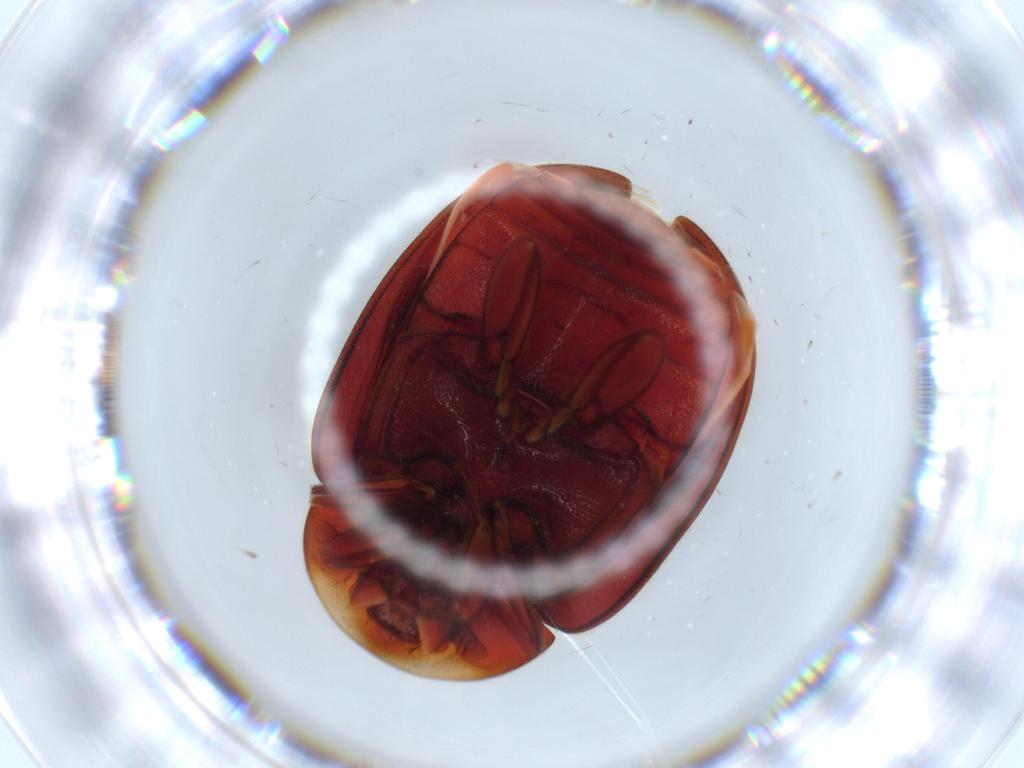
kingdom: Animalia
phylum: Arthropoda
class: Insecta
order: Coleoptera
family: Coccinellidae
